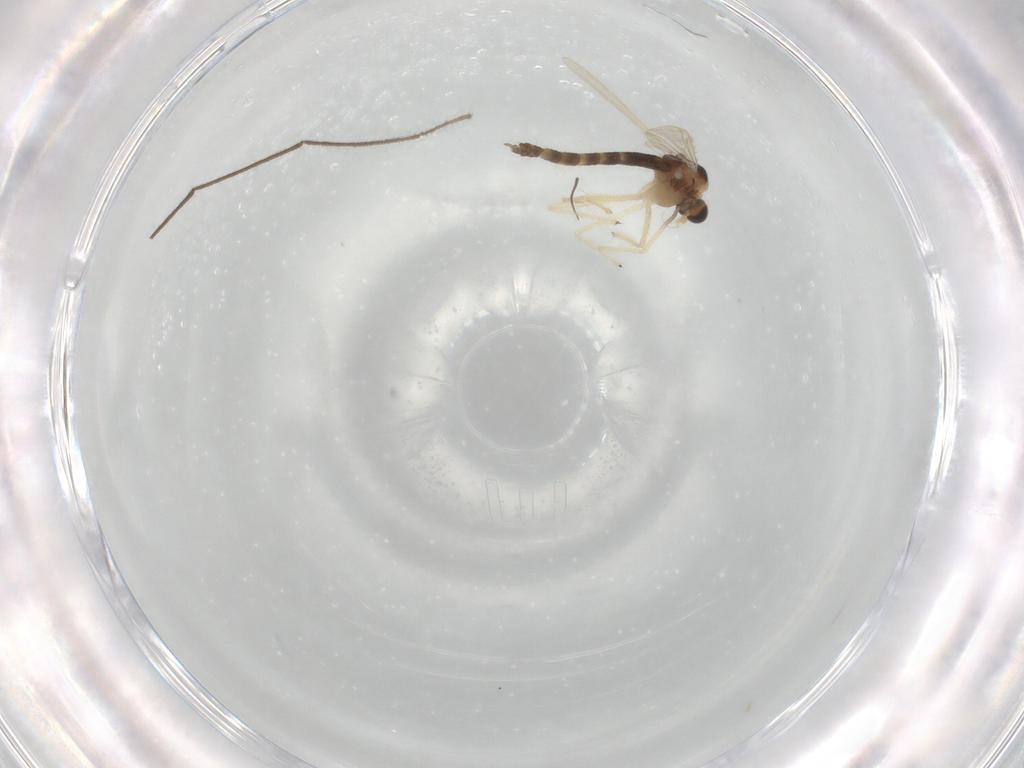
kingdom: Animalia
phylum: Arthropoda
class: Insecta
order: Diptera
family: Chironomidae
